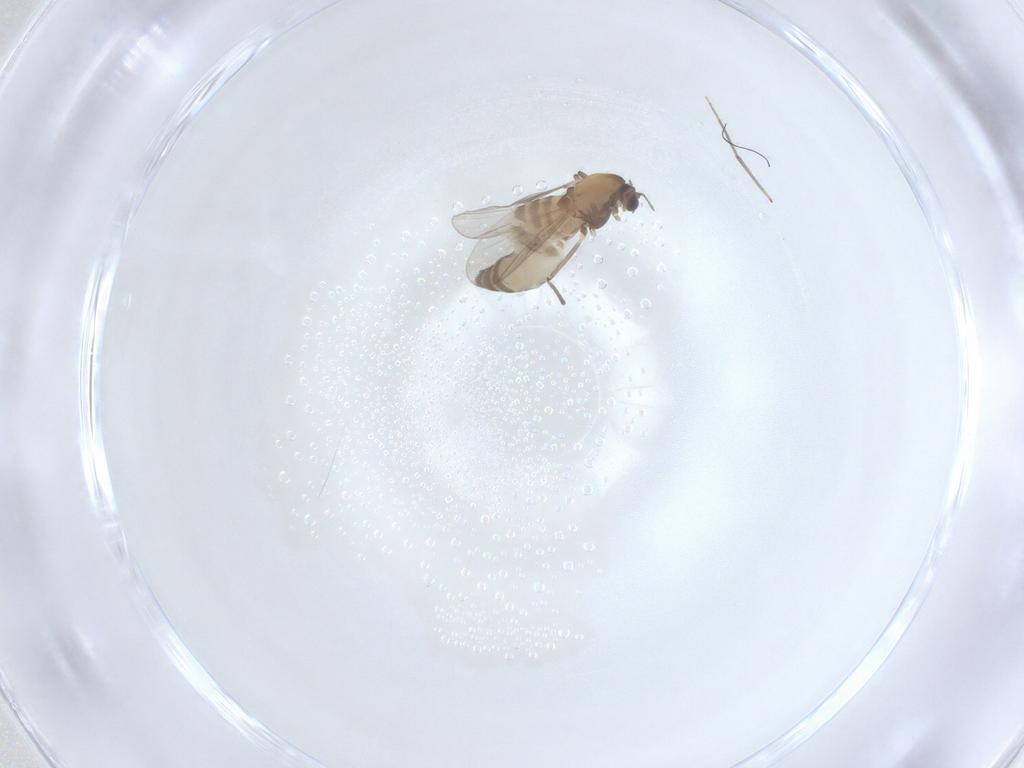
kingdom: Animalia
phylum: Arthropoda
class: Insecta
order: Diptera
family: Chironomidae
